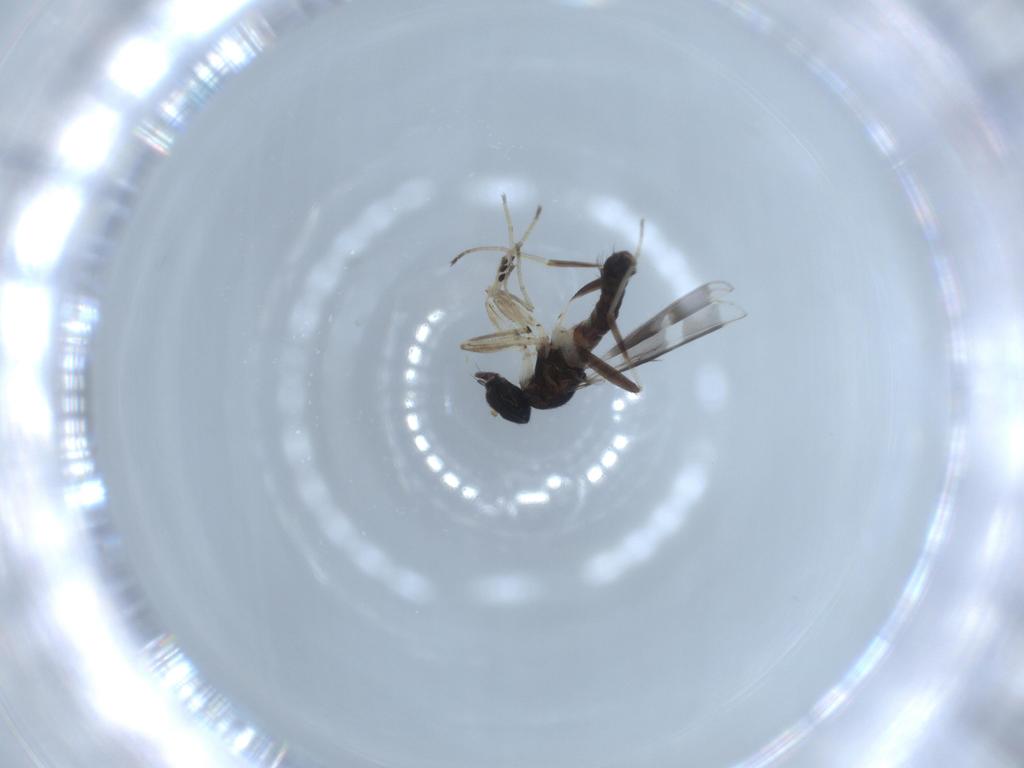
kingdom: Animalia
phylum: Arthropoda
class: Insecta
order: Diptera
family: Hybotidae
